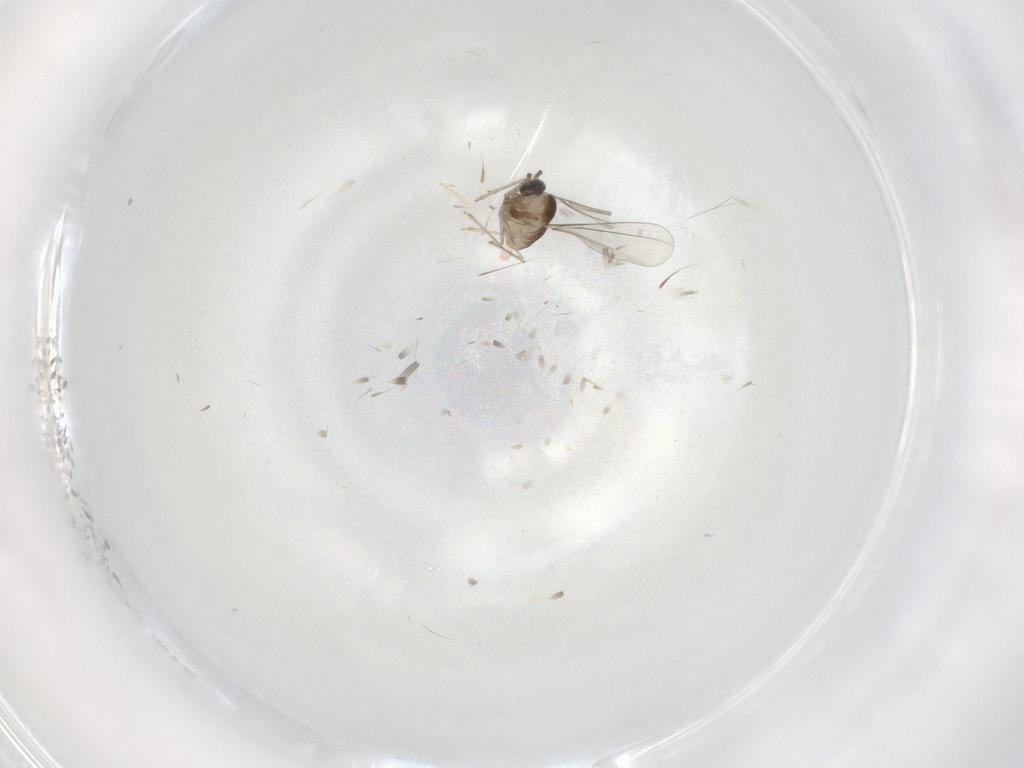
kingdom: Animalia
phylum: Arthropoda
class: Insecta
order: Diptera
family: Cecidomyiidae
